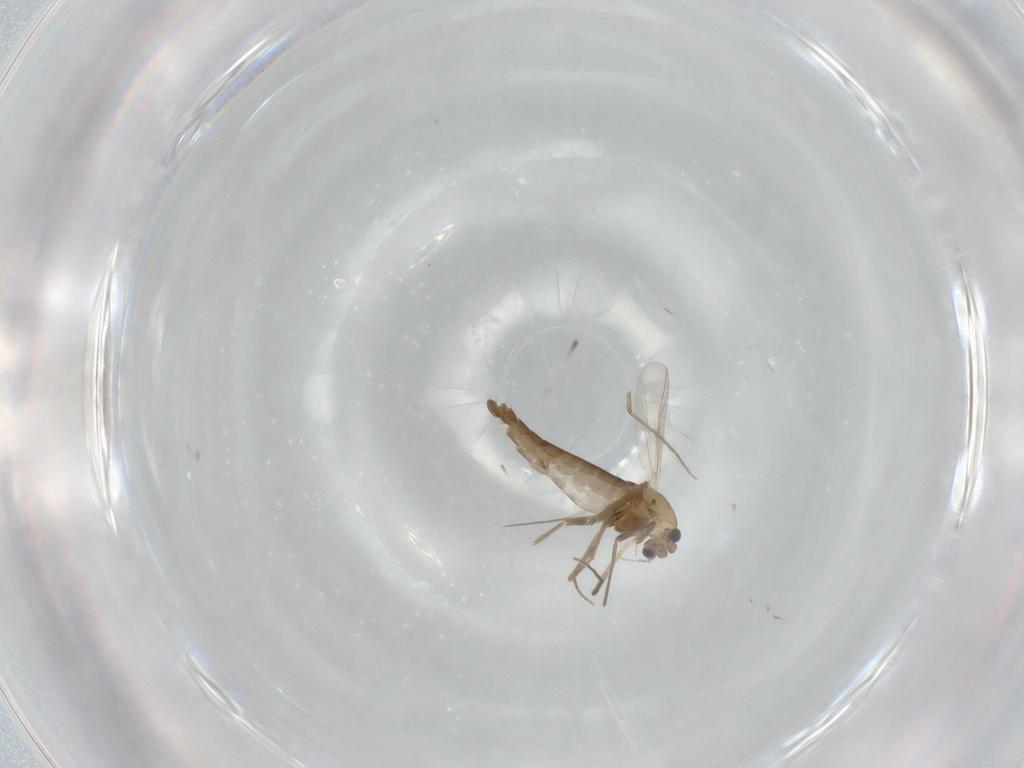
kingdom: Animalia
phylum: Arthropoda
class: Insecta
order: Diptera
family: Chironomidae
